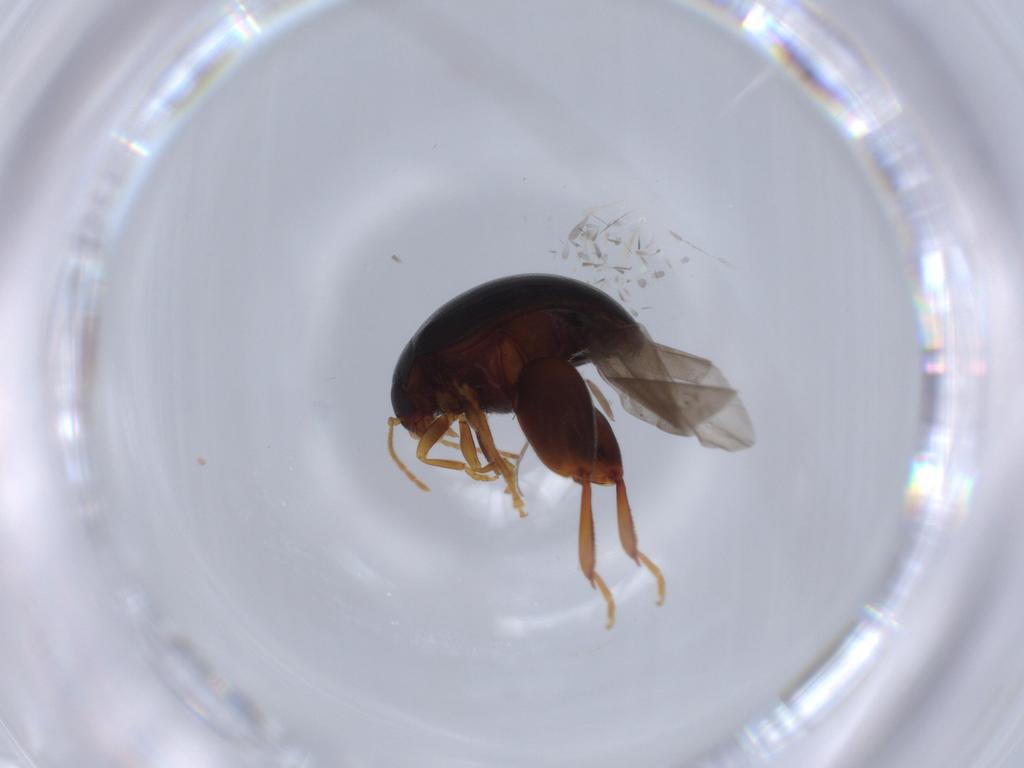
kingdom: Animalia
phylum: Arthropoda
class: Insecta
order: Coleoptera
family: Chrysomelidae
